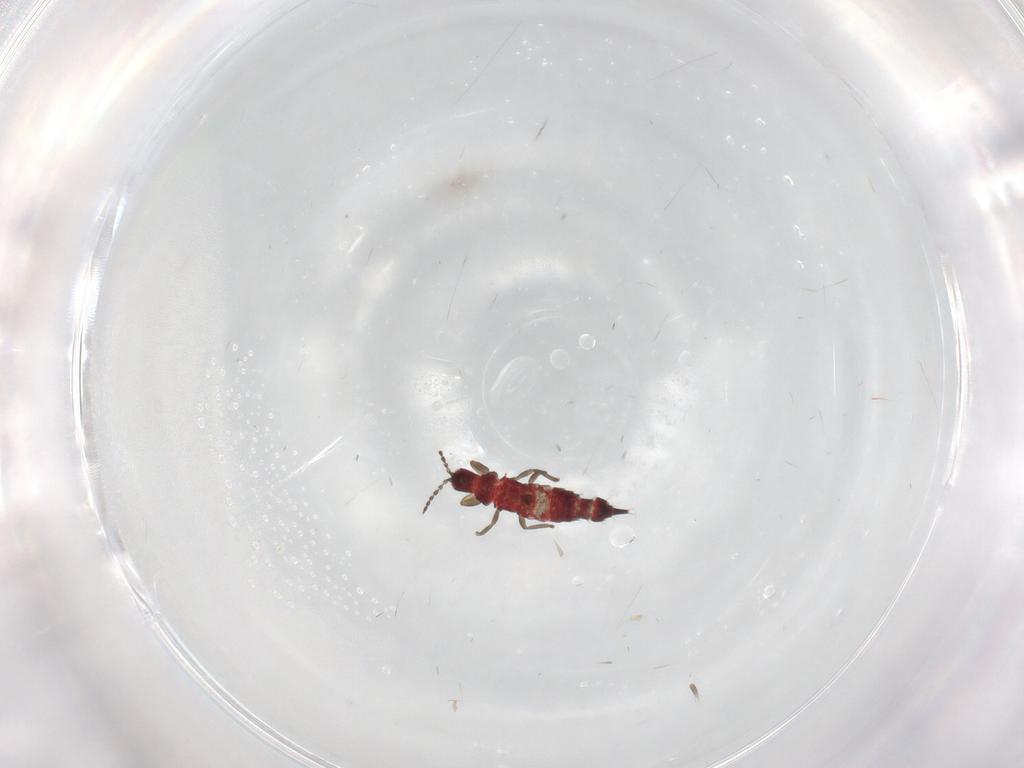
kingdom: Animalia
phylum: Arthropoda
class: Insecta
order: Thysanoptera
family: Phlaeothripidae
